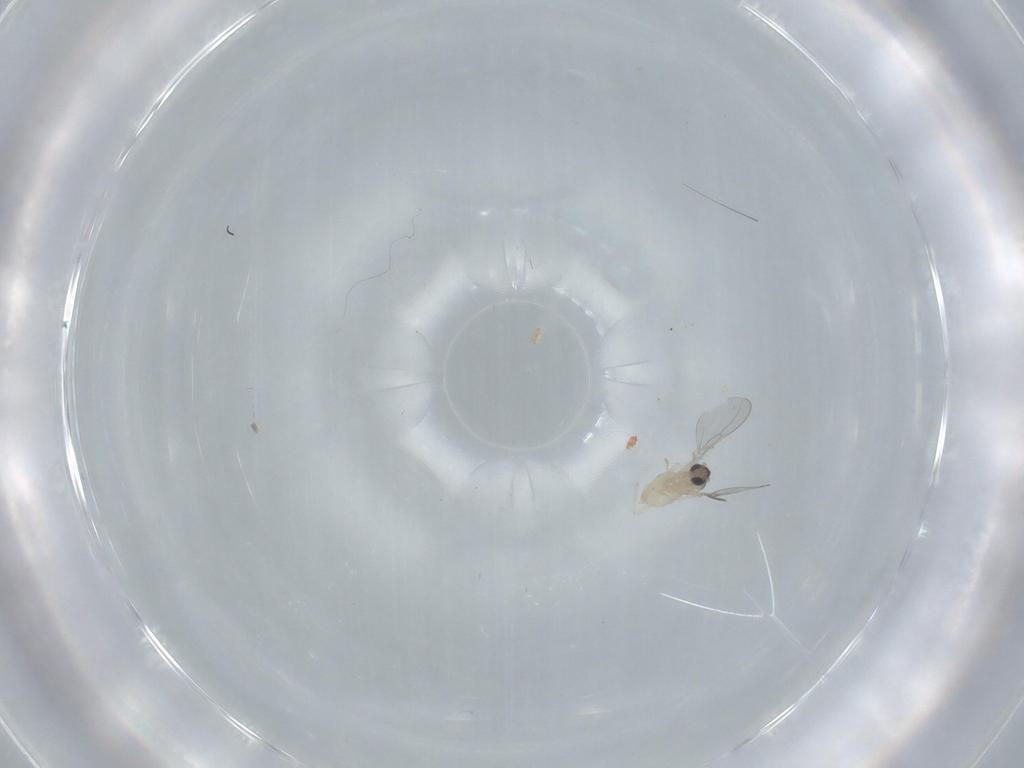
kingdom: Animalia
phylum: Arthropoda
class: Insecta
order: Diptera
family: Cecidomyiidae
